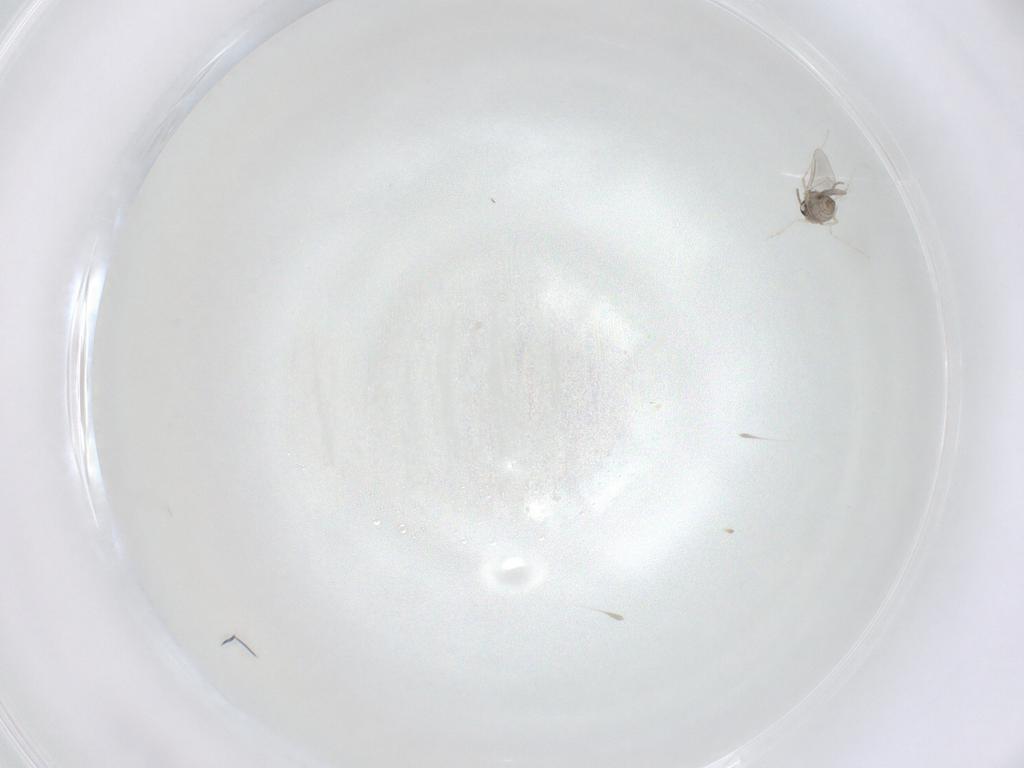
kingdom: Animalia
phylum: Arthropoda
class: Insecta
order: Diptera
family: Cecidomyiidae
